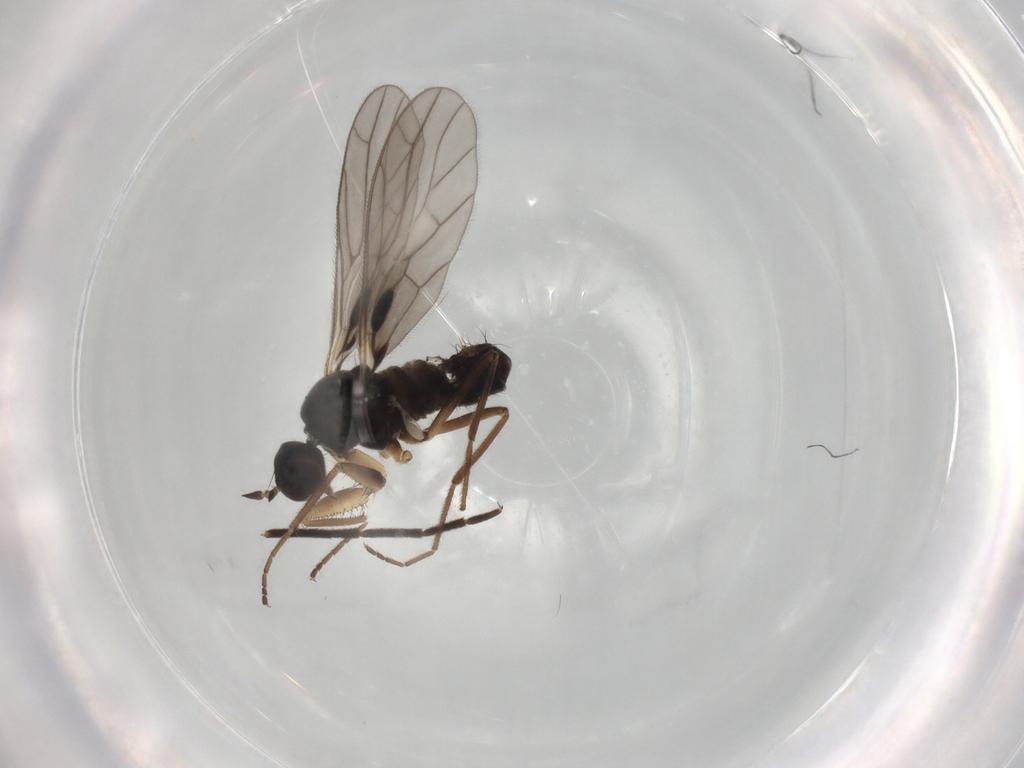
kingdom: Animalia
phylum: Arthropoda
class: Insecta
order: Diptera
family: Empididae
